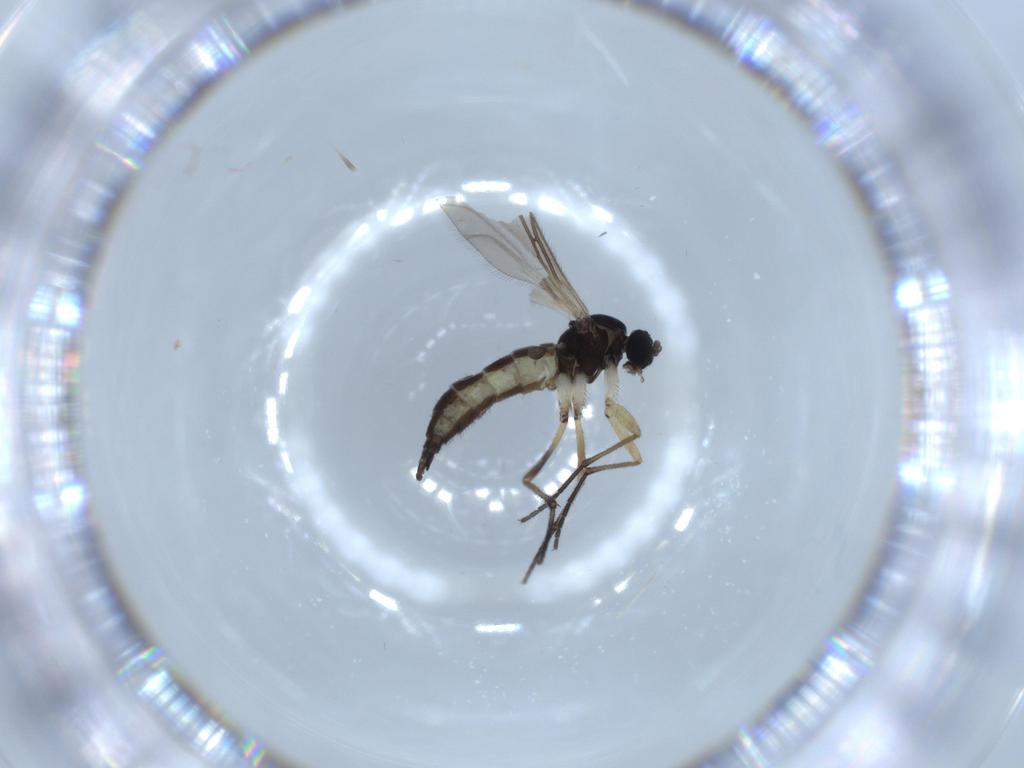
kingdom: Animalia
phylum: Arthropoda
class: Insecta
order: Diptera
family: Sciaridae
